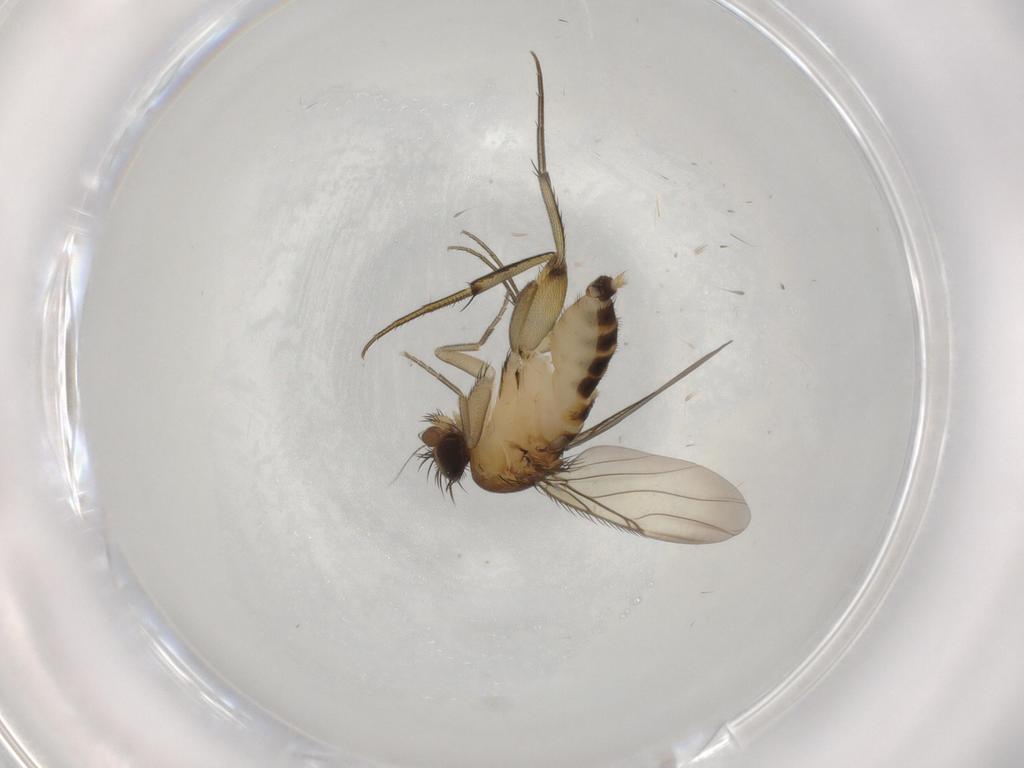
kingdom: Animalia
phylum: Arthropoda
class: Insecta
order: Diptera
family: Phoridae
